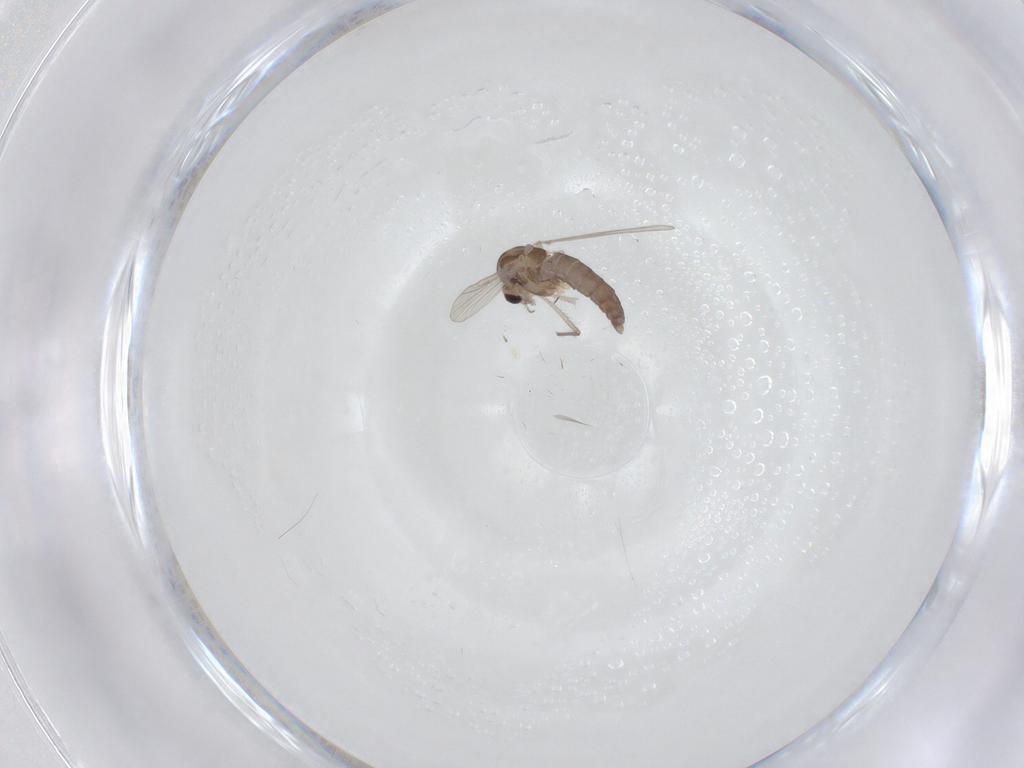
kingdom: Animalia
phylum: Arthropoda
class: Insecta
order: Diptera
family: Chironomidae
